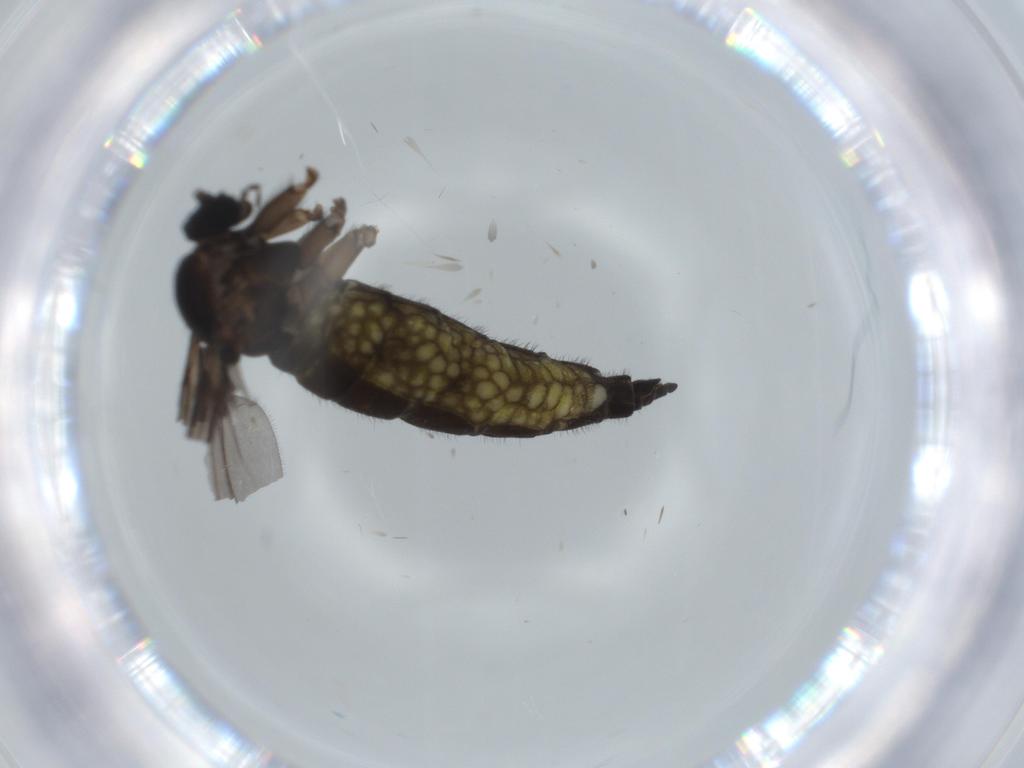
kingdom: Animalia
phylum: Arthropoda
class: Insecta
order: Diptera
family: Sciaridae
